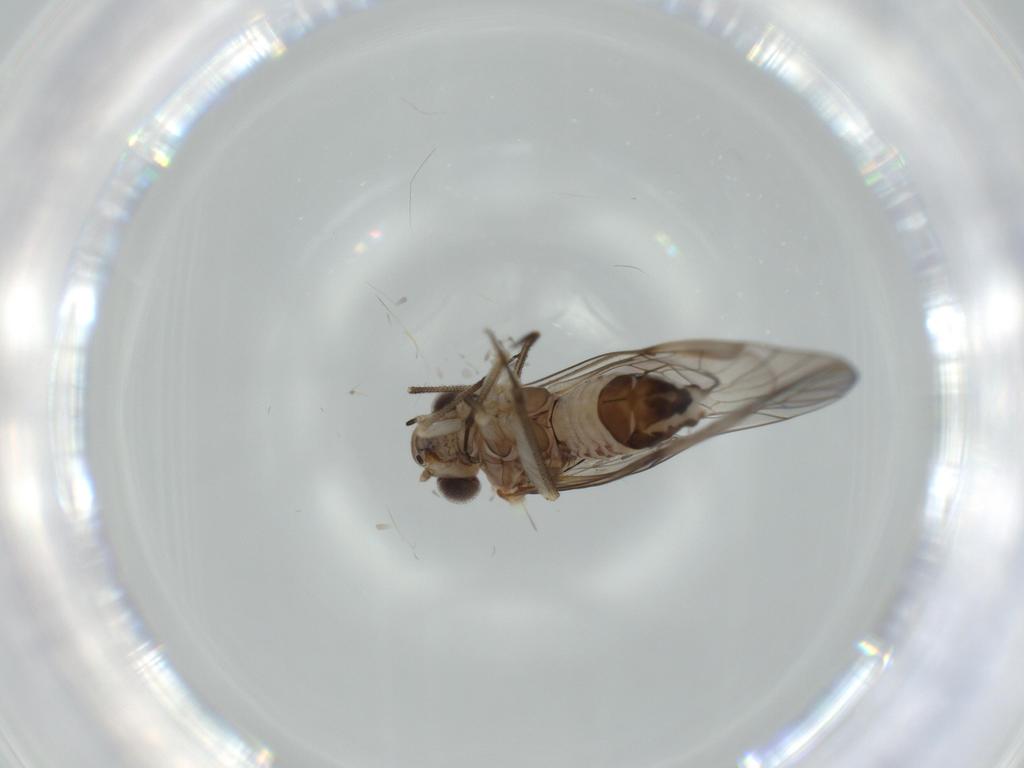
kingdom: Animalia
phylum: Arthropoda
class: Insecta
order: Psocodea
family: Psocidae
